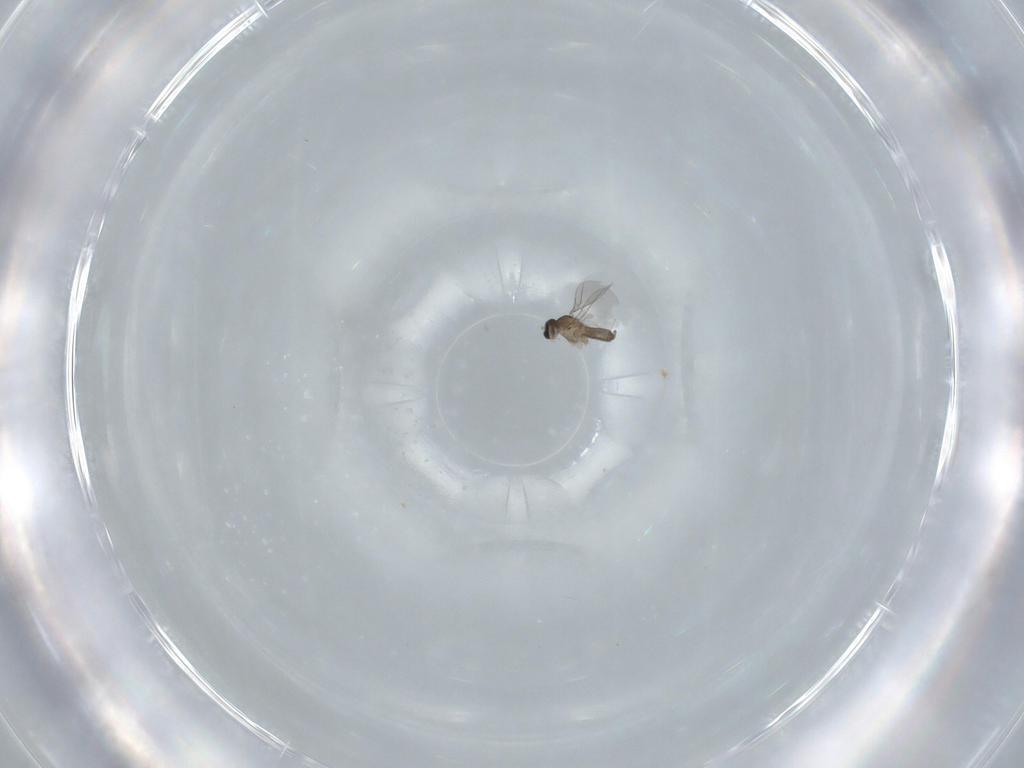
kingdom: Animalia
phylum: Arthropoda
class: Insecta
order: Diptera
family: Cecidomyiidae
